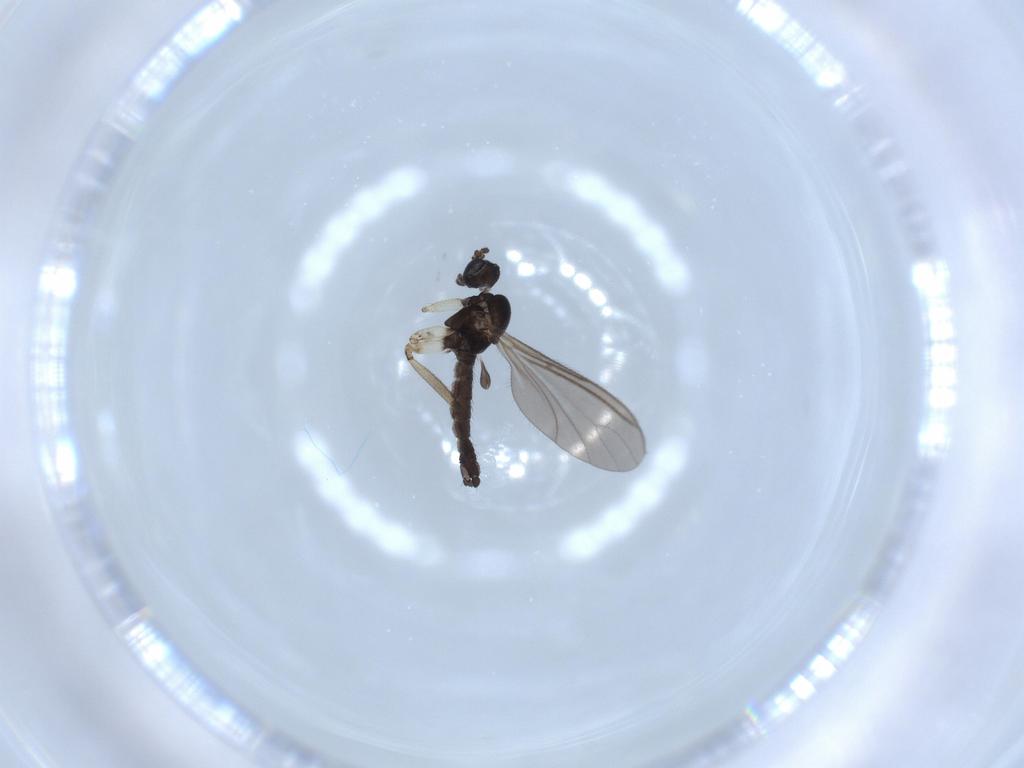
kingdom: Animalia
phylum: Arthropoda
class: Insecta
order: Diptera
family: Sciaridae
